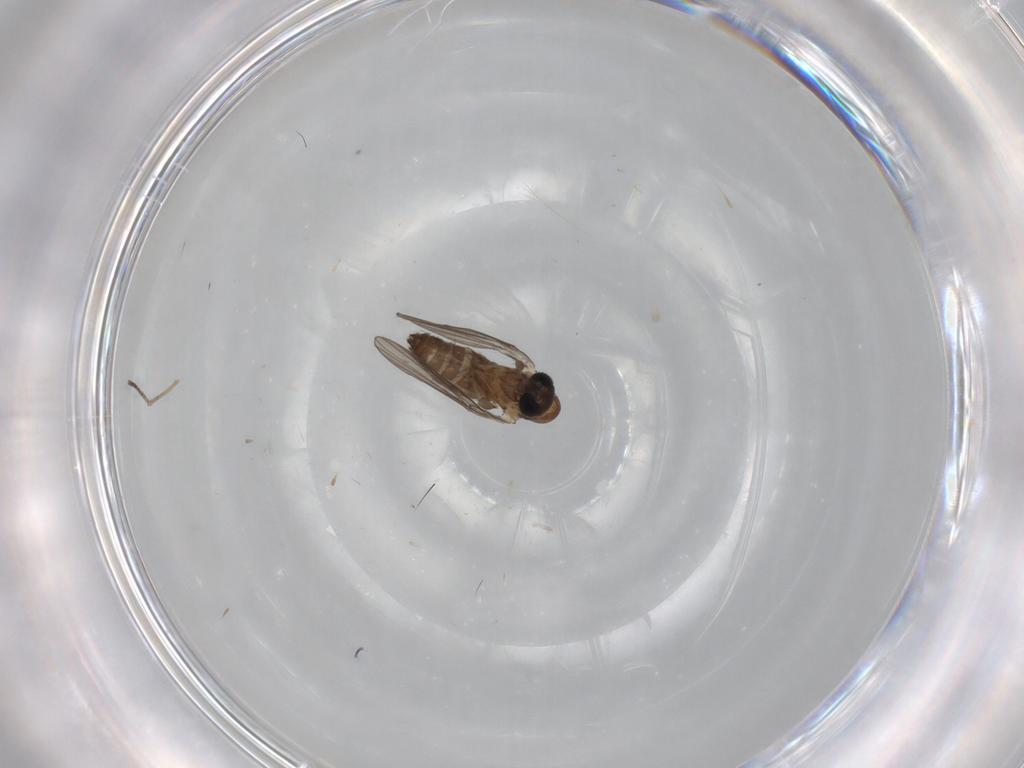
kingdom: Animalia
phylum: Arthropoda
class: Insecta
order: Diptera
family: Psychodidae
